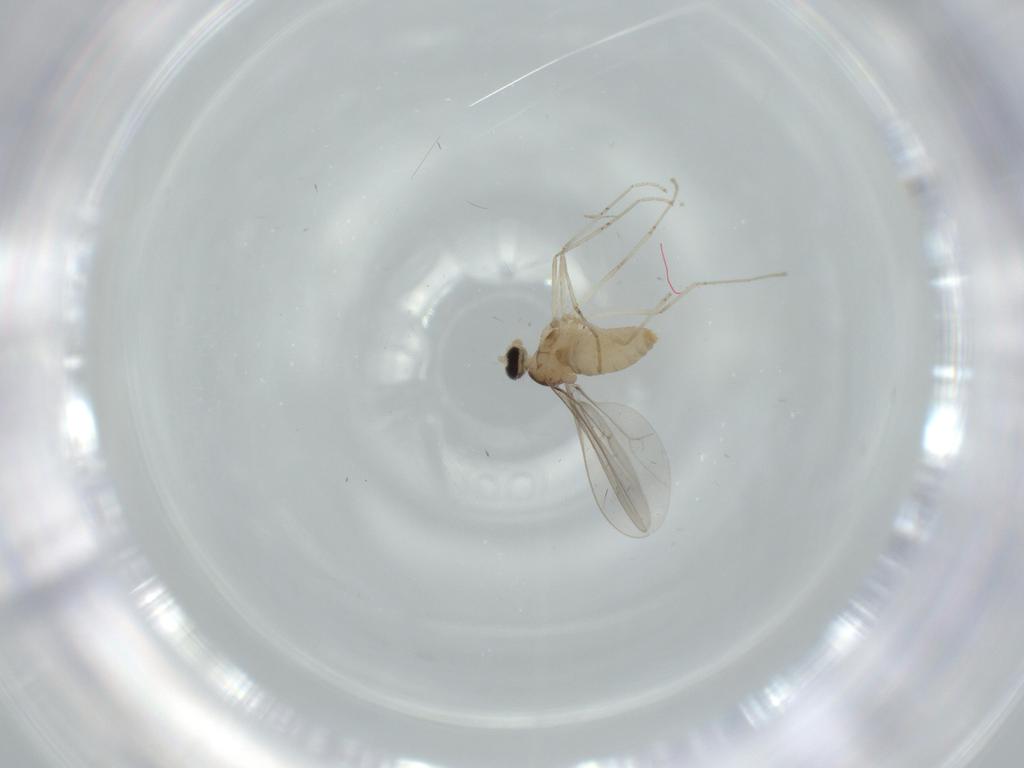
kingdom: Animalia
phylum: Arthropoda
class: Insecta
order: Diptera
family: Cecidomyiidae
